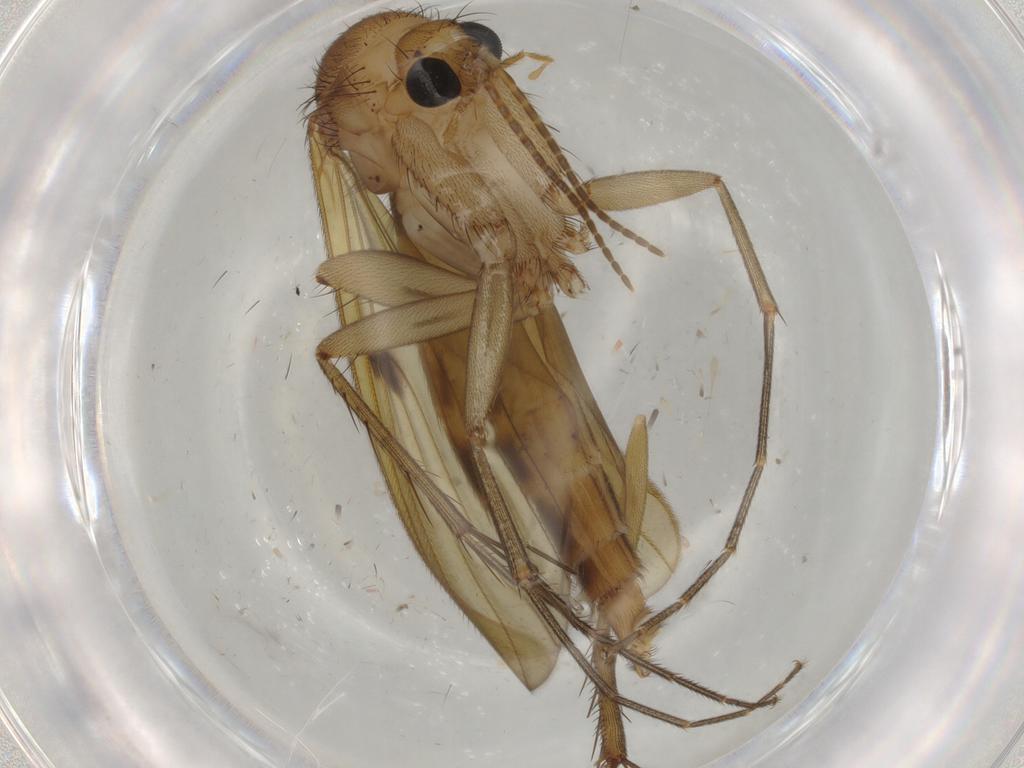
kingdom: Animalia
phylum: Arthropoda
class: Insecta
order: Diptera
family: Mycetophilidae
